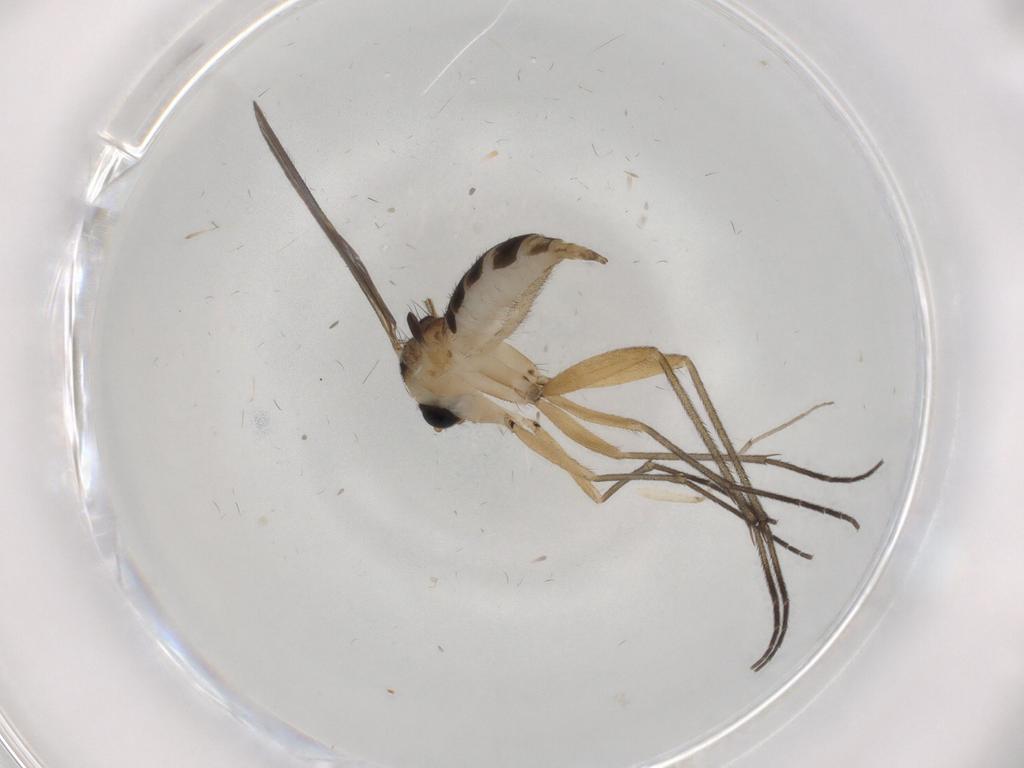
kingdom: Animalia
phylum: Arthropoda
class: Insecta
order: Diptera
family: Sciaridae
